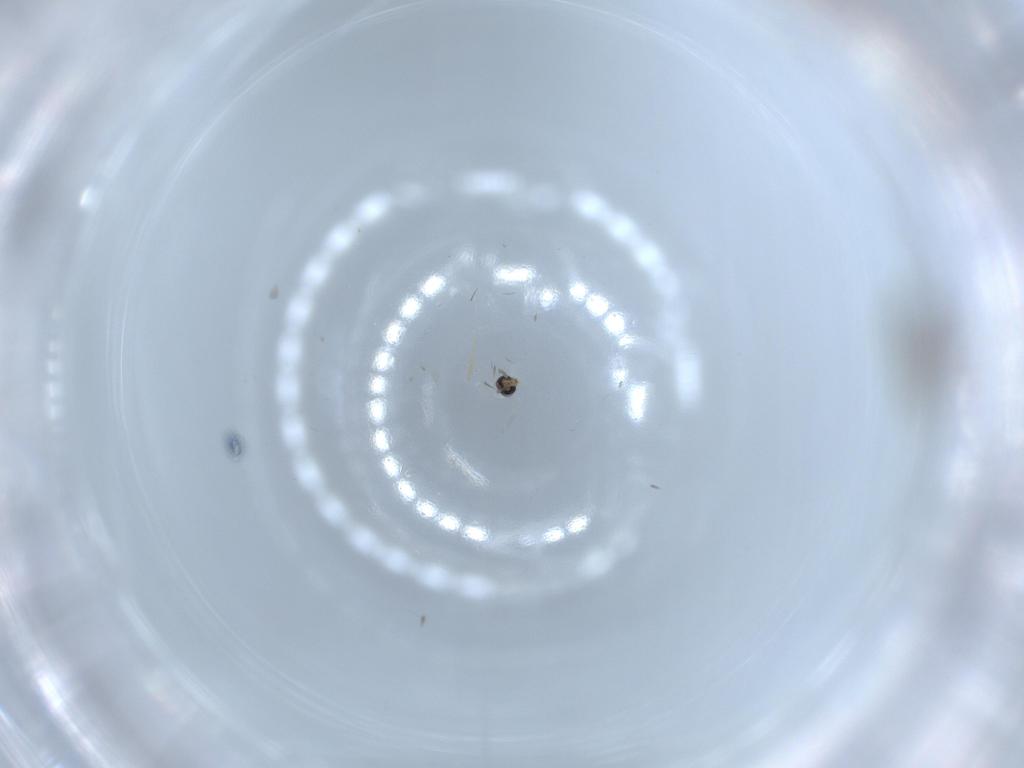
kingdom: Animalia
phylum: Arthropoda
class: Insecta
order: Diptera
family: Chironomidae
